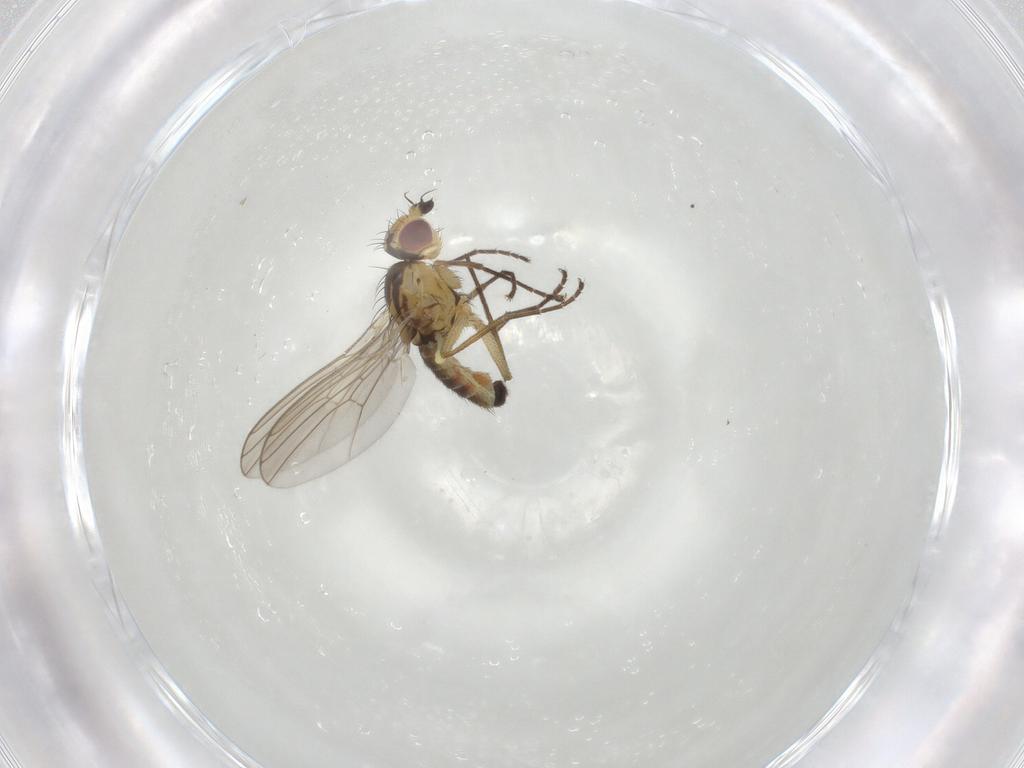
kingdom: Animalia
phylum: Arthropoda
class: Insecta
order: Diptera
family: Agromyzidae
